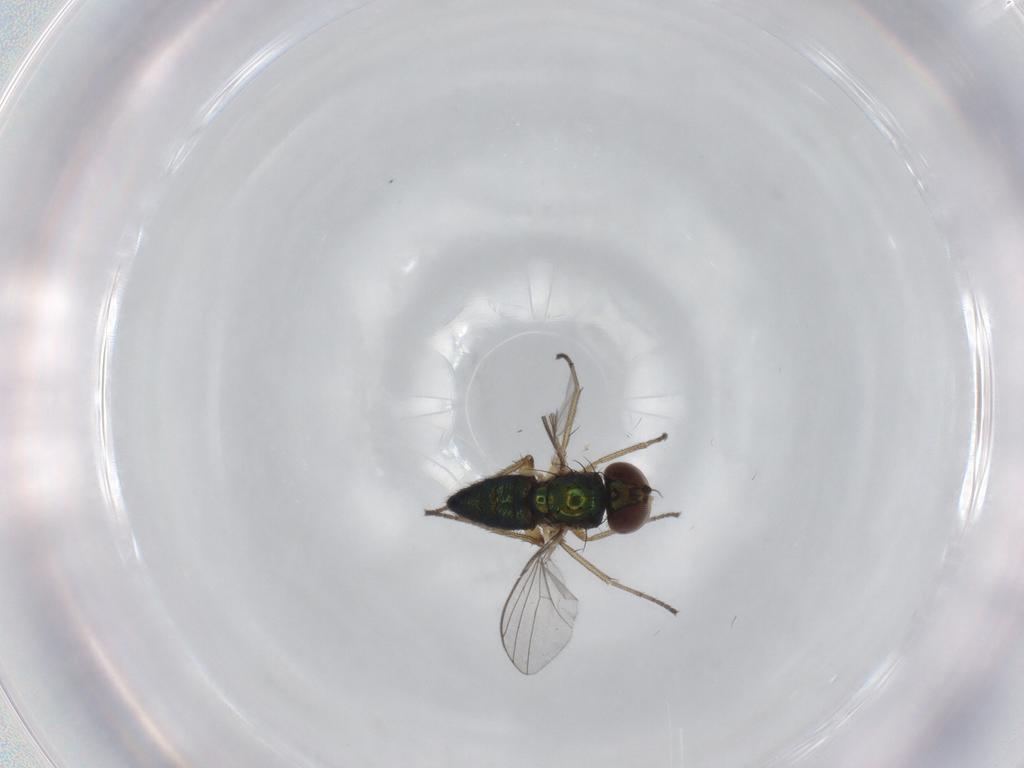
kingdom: Animalia
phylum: Arthropoda
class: Insecta
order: Diptera
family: Dolichopodidae
